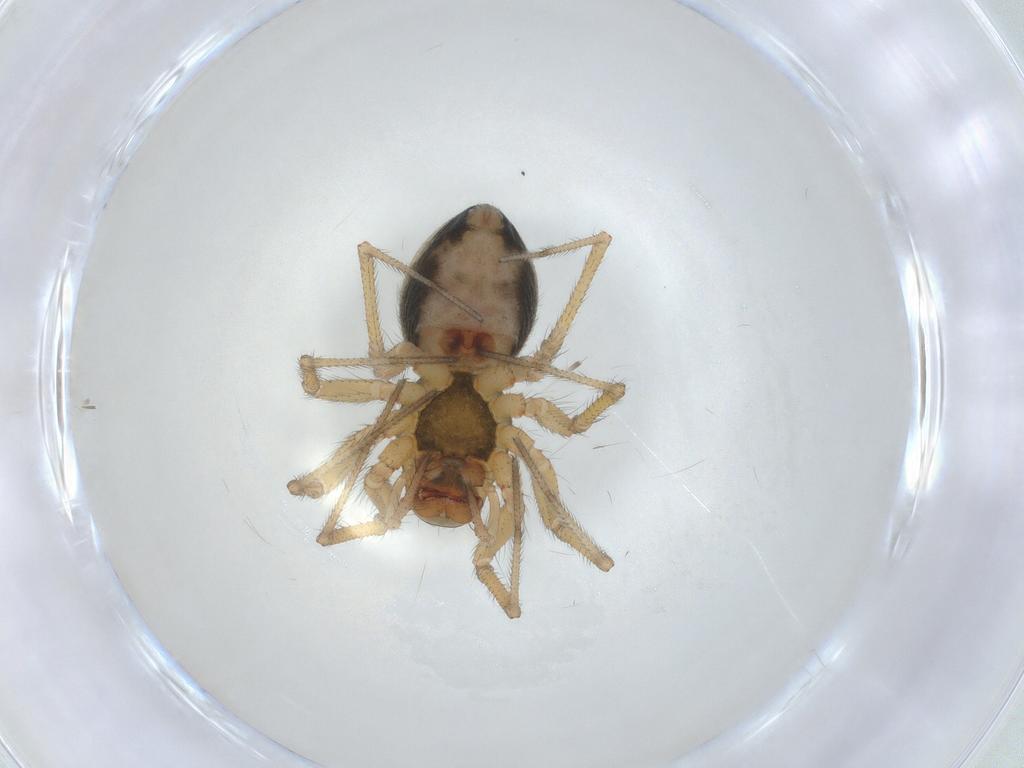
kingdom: Animalia
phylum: Arthropoda
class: Arachnida
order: Araneae
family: Linyphiidae
